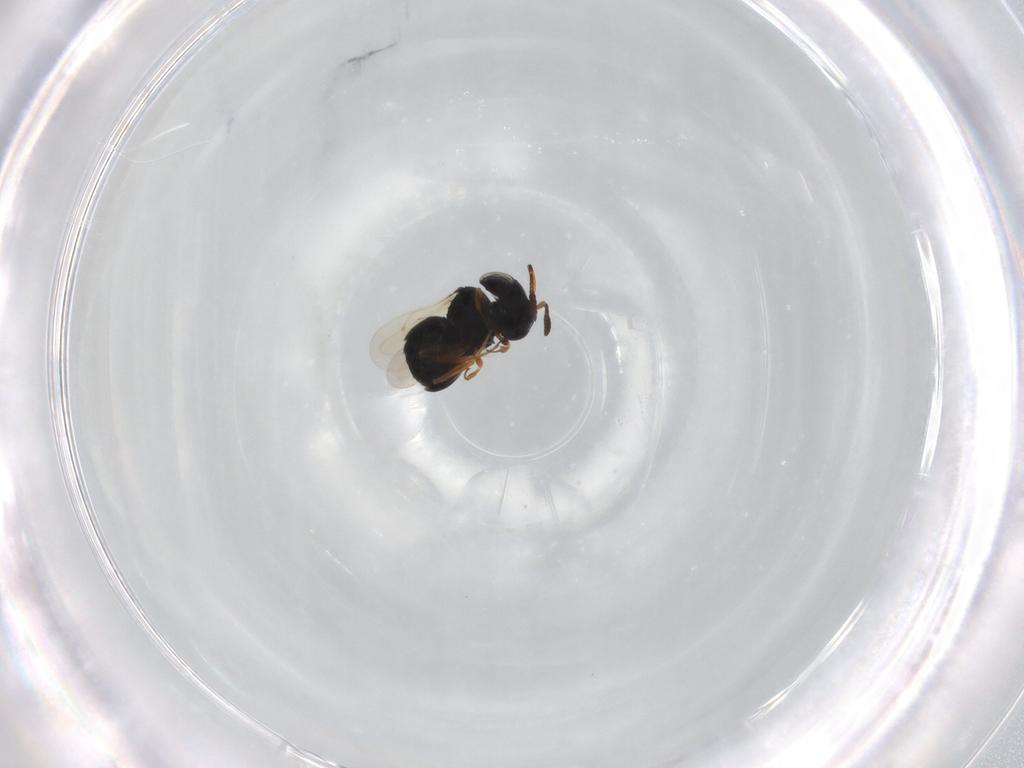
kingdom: Animalia
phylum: Arthropoda
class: Insecta
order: Hymenoptera
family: Scelionidae
